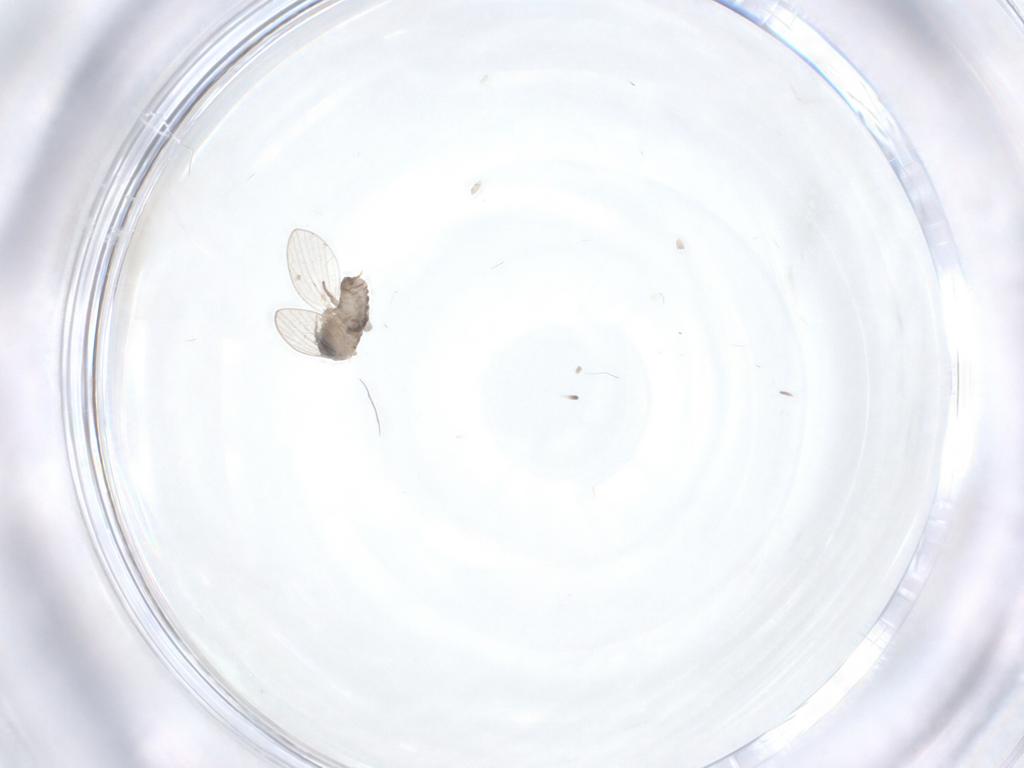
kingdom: Animalia
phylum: Arthropoda
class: Insecta
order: Diptera
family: Psychodidae
